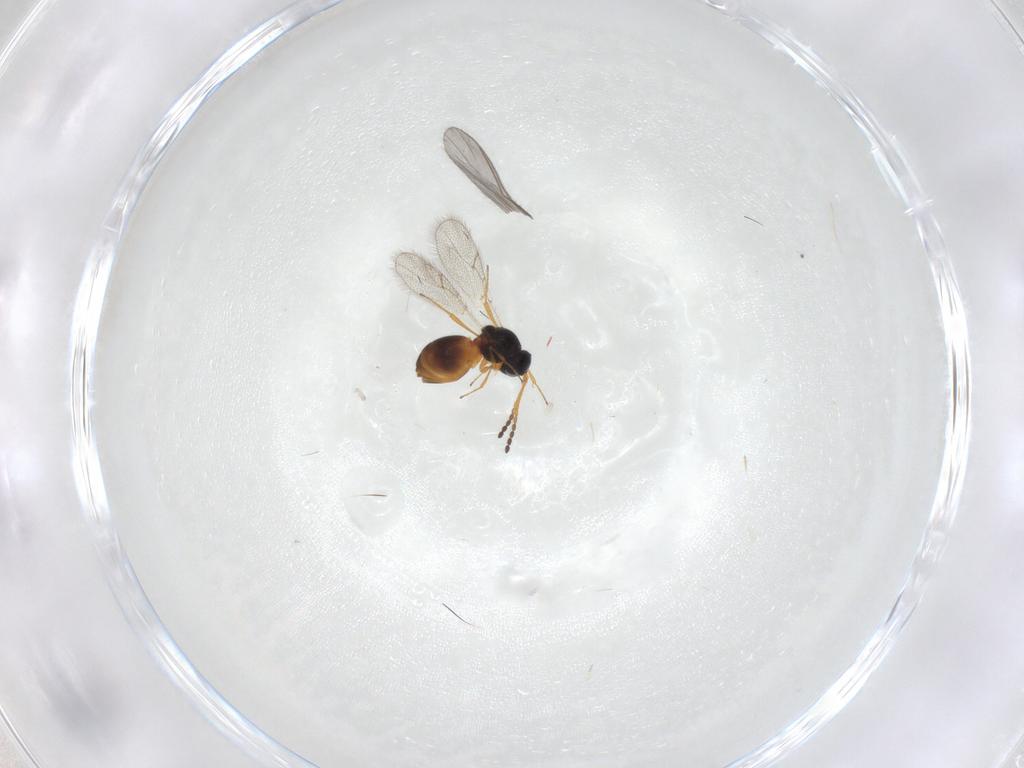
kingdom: Animalia
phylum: Arthropoda
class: Insecta
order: Hymenoptera
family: Figitidae
